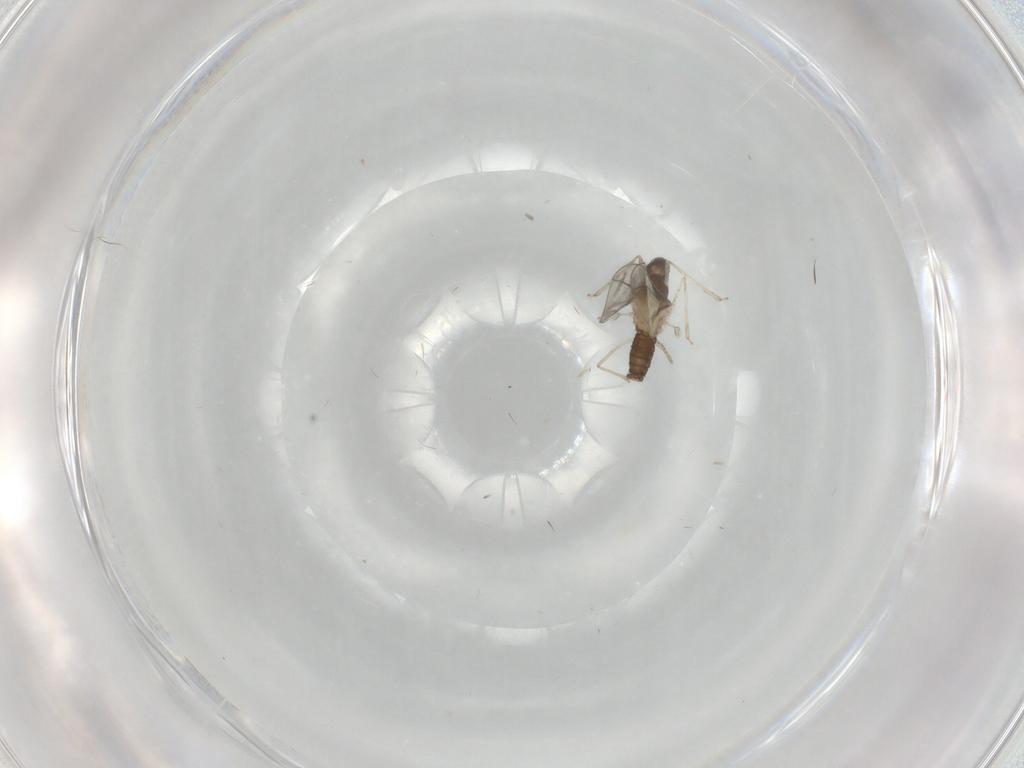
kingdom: Animalia
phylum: Arthropoda
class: Insecta
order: Diptera
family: Cecidomyiidae
